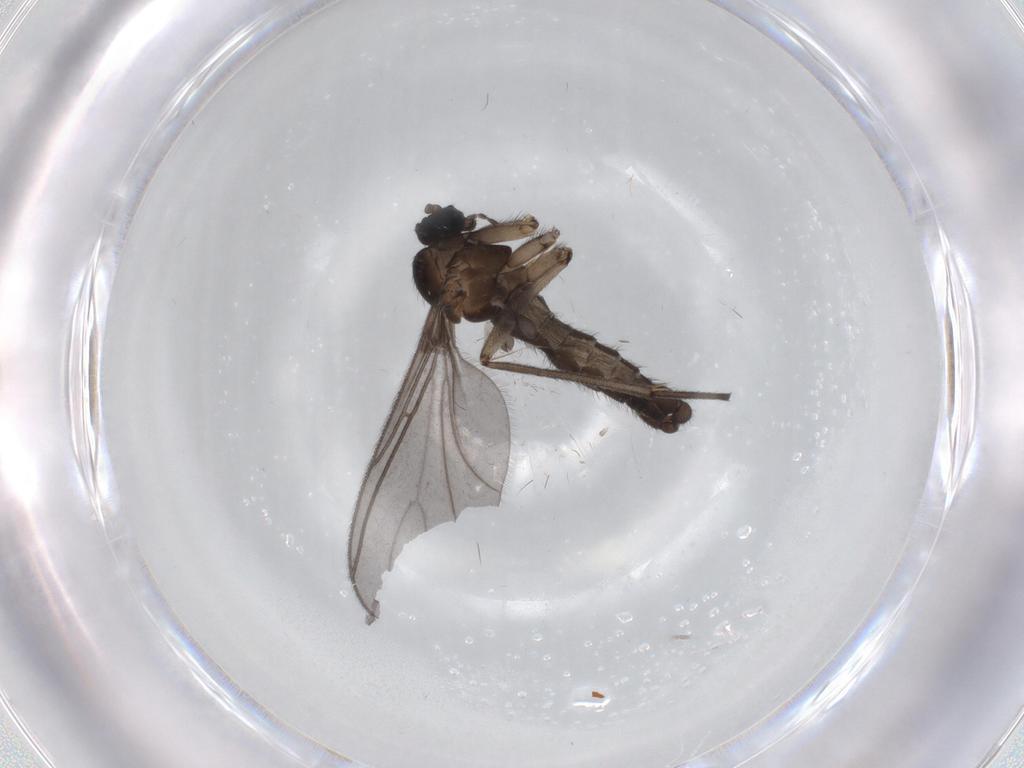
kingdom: Animalia
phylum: Arthropoda
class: Insecta
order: Diptera
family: Sciaridae
